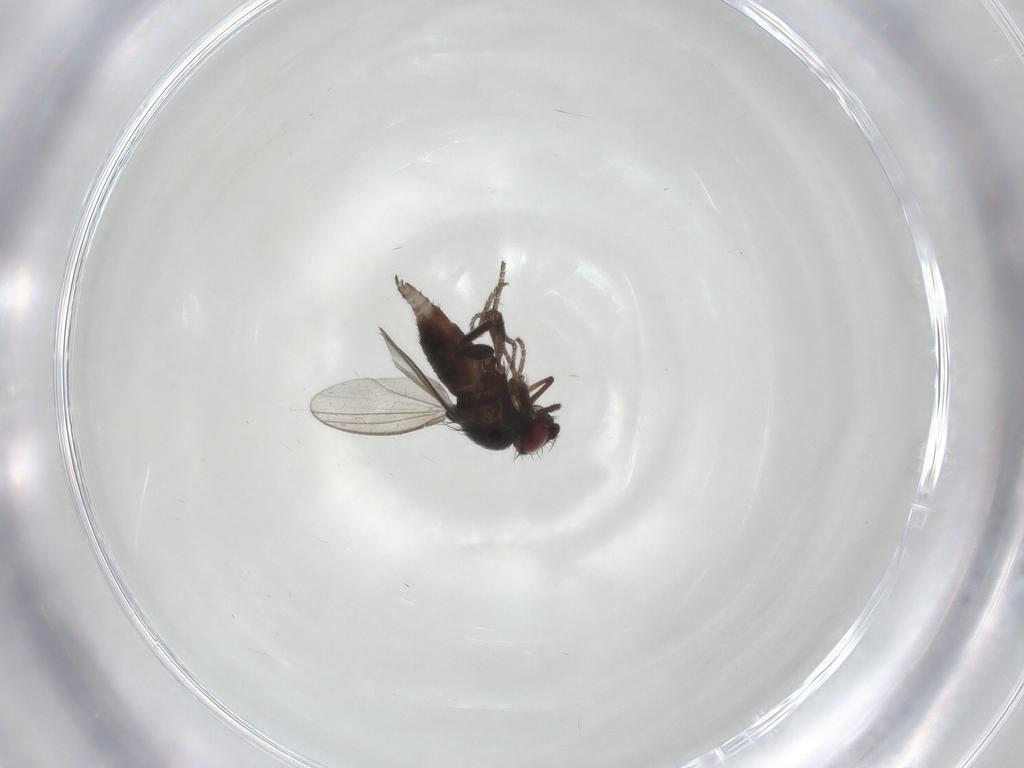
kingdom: Animalia
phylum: Arthropoda
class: Insecta
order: Diptera
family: Milichiidae
